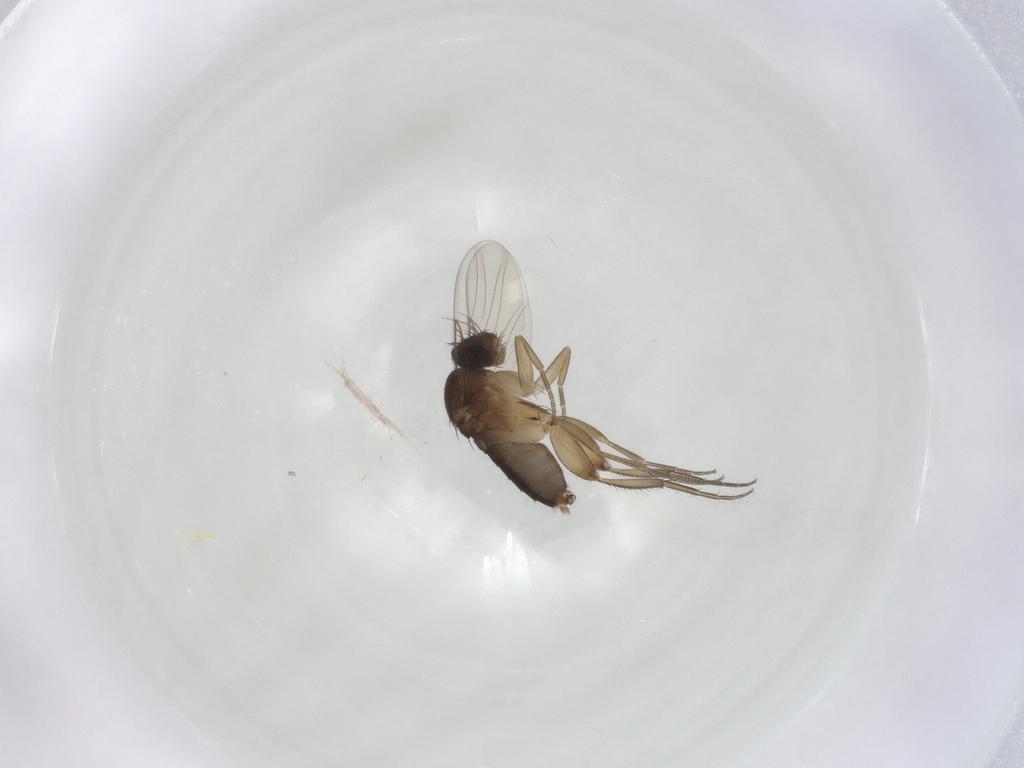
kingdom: Animalia
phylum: Arthropoda
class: Insecta
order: Diptera
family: Phoridae
